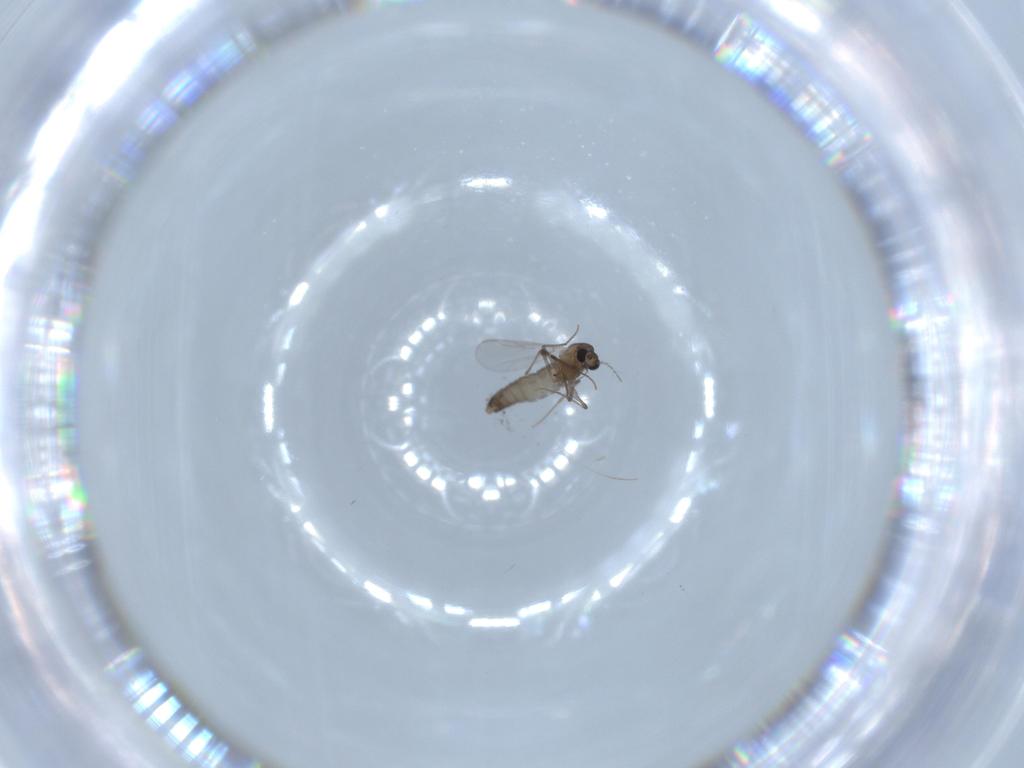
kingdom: Animalia
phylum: Arthropoda
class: Insecta
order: Diptera
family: Chironomidae
